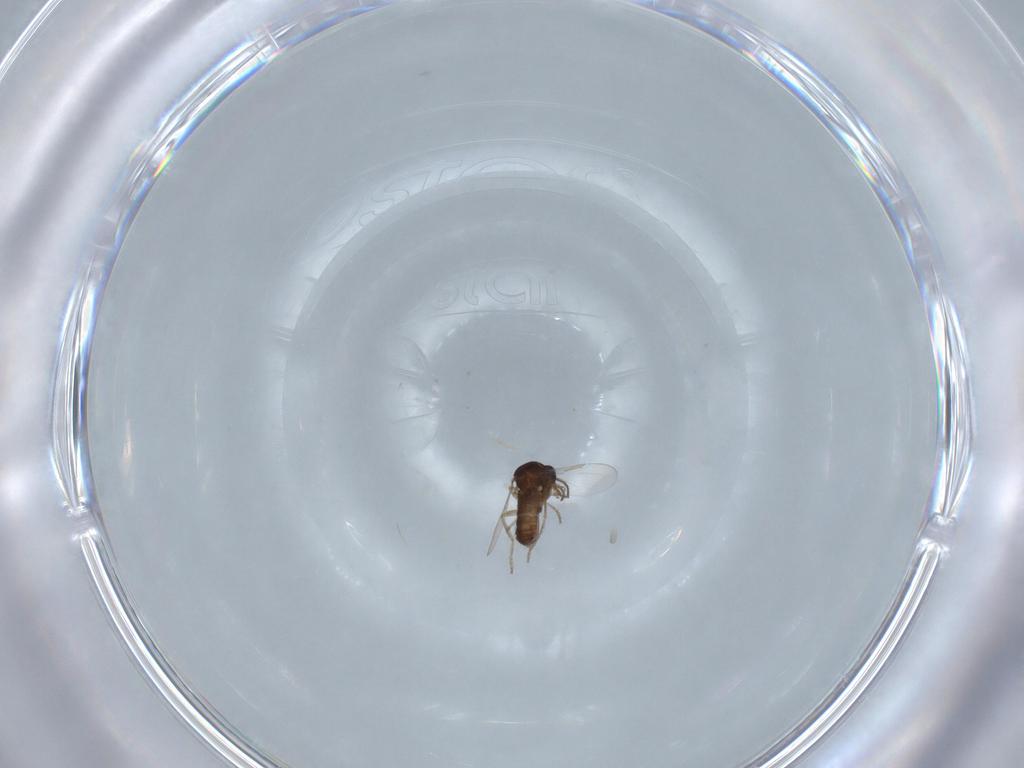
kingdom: Animalia
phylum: Arthropoda
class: Insecta
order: Diptera
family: Ceratopogonidae
